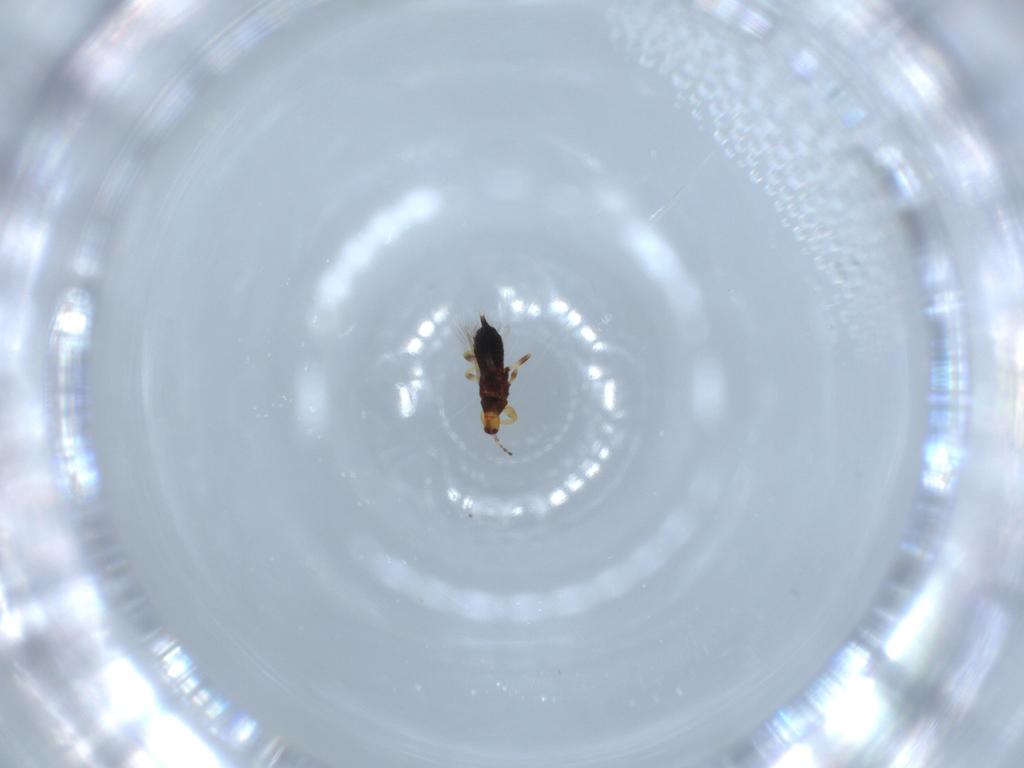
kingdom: Animalia
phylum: Arthropoda
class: Insecta
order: Thysanoptera
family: Phlaeothripidae
